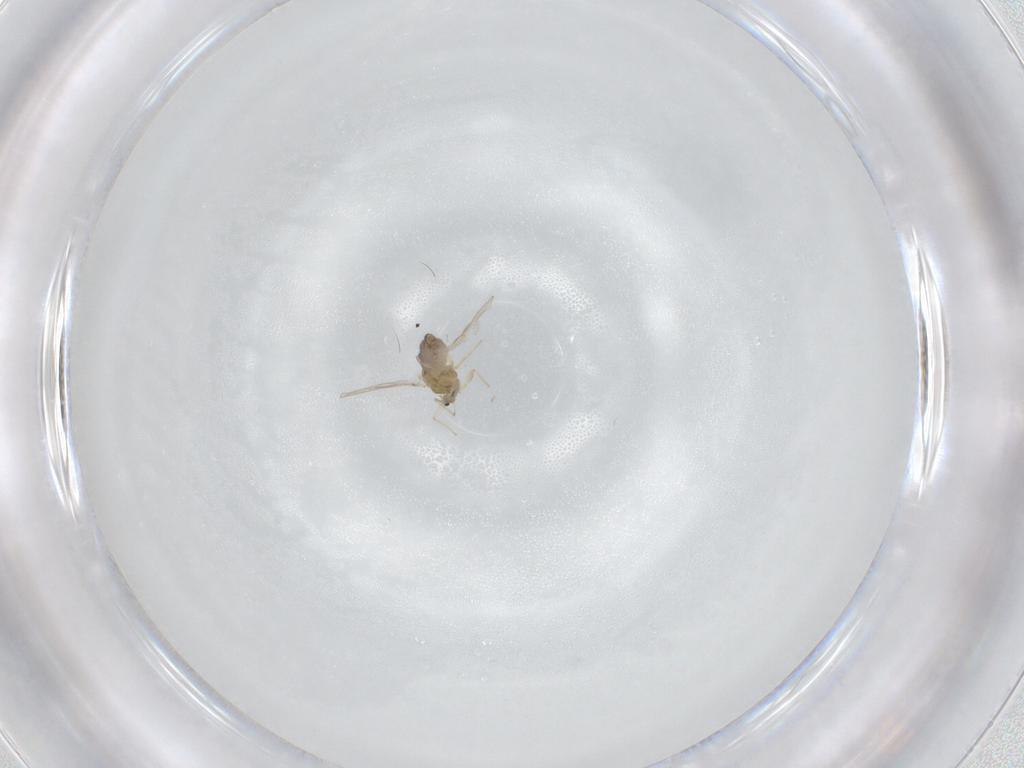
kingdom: Animalia
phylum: Arthropoda
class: Insecta
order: Diptera
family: Chironomidae
